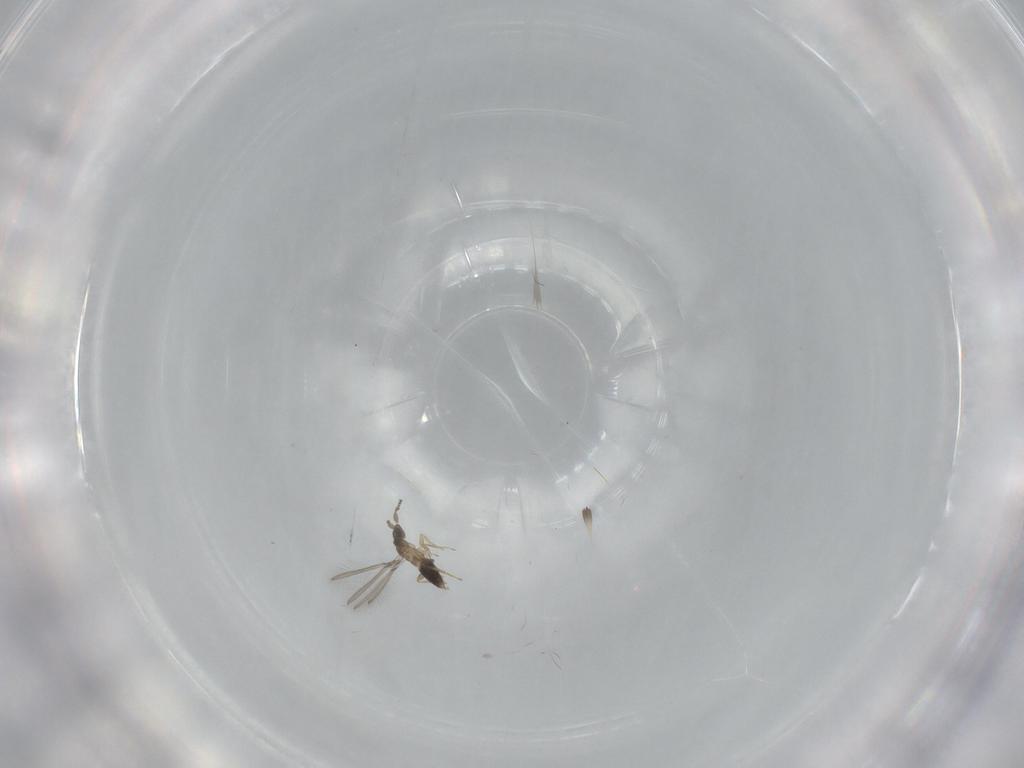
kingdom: Animalia
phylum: Arthropoda
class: Insecta
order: Hymenoptera
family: Mymaridae
